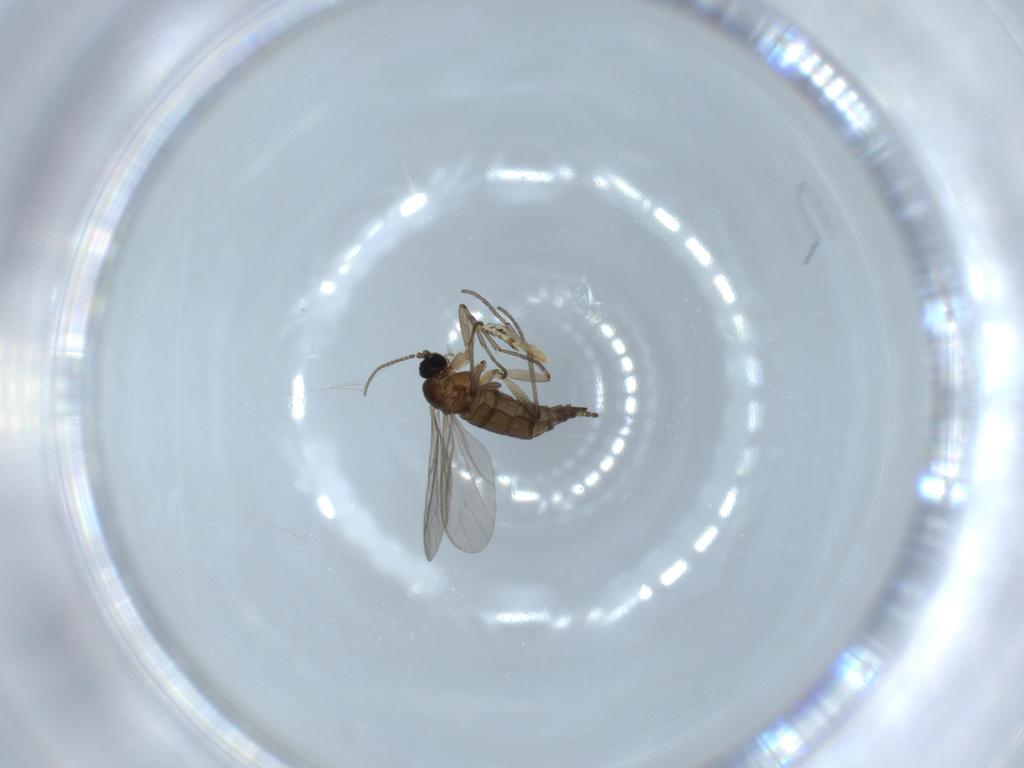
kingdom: Animalia
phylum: Arthropoda
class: Insecta
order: Diptera
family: Sciaridae
